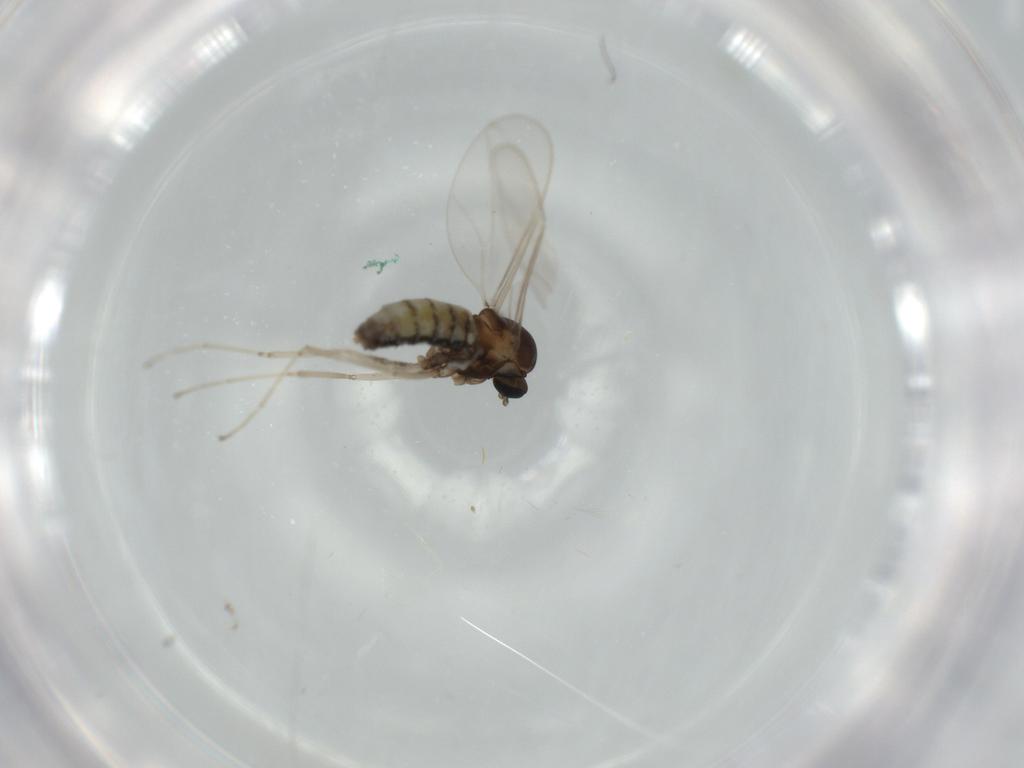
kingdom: Animalia
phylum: Arthropoda
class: Insecta
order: Diptera
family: Cecidomyiidae
